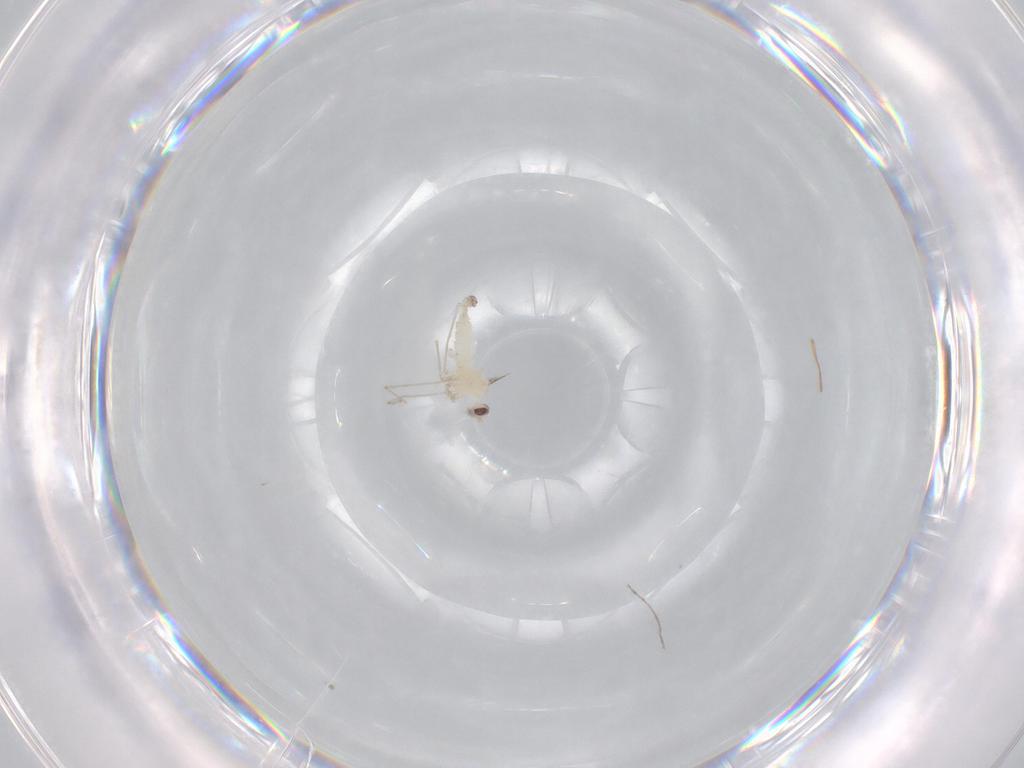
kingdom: Animalia
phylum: Arthropoda
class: Insecta
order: Diptera
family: Cecidomyiidae
